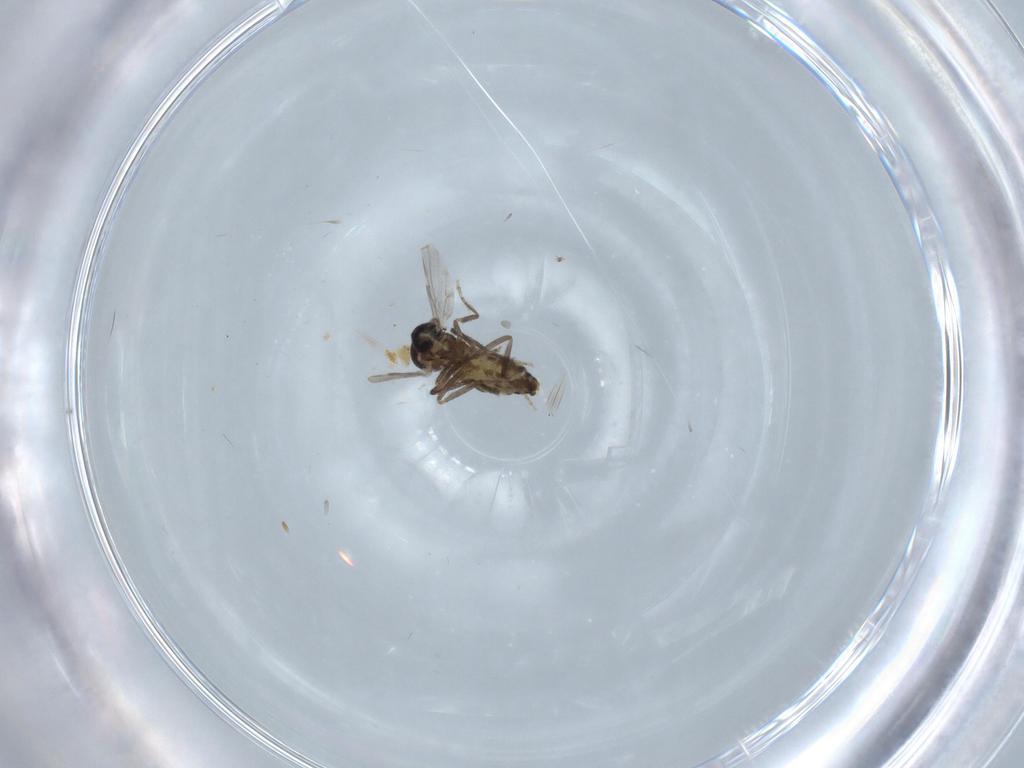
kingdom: Animalia
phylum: Arthropoda
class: Insecta
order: Diptera
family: Ceratopogonidae
